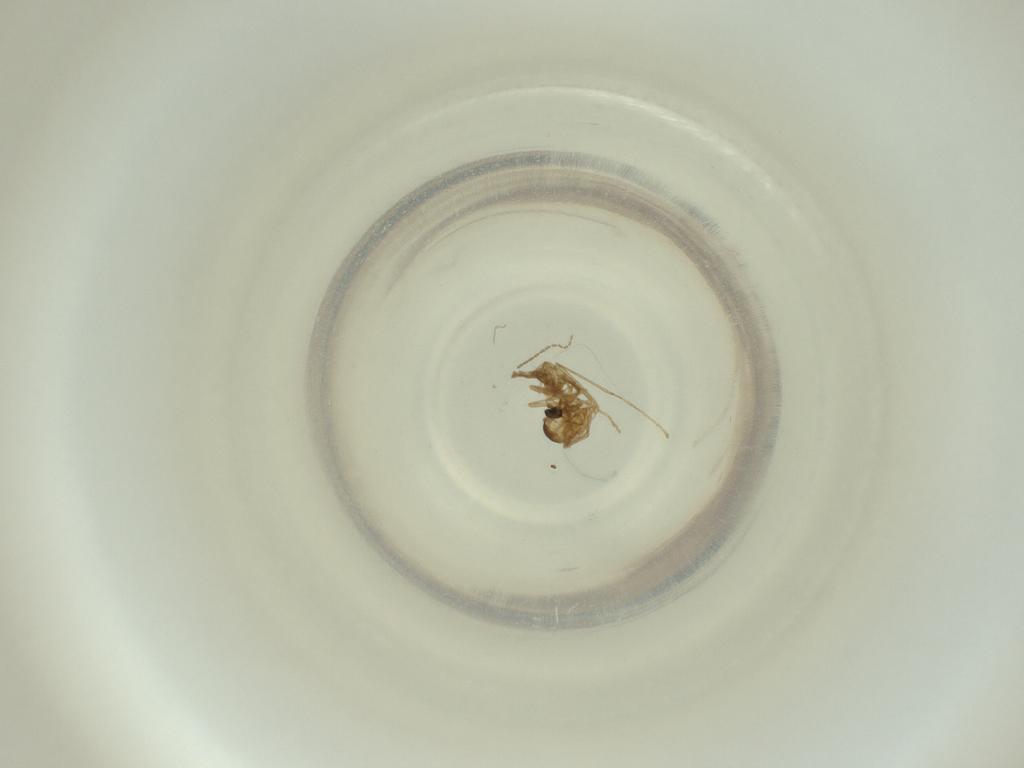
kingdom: Animalia
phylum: Arthropoda
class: Insecta
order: Diptera
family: Cecidomyiidae
